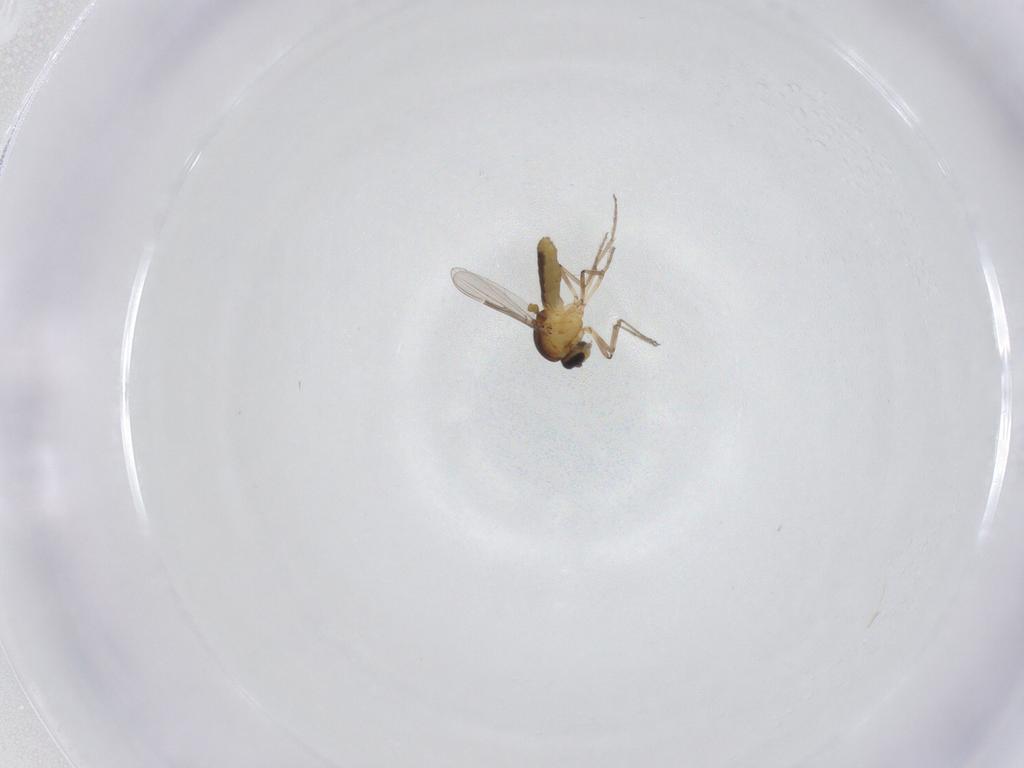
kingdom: Animalia
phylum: Arthropoda
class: Insecta
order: Diptera
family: Ceratopogonidae
